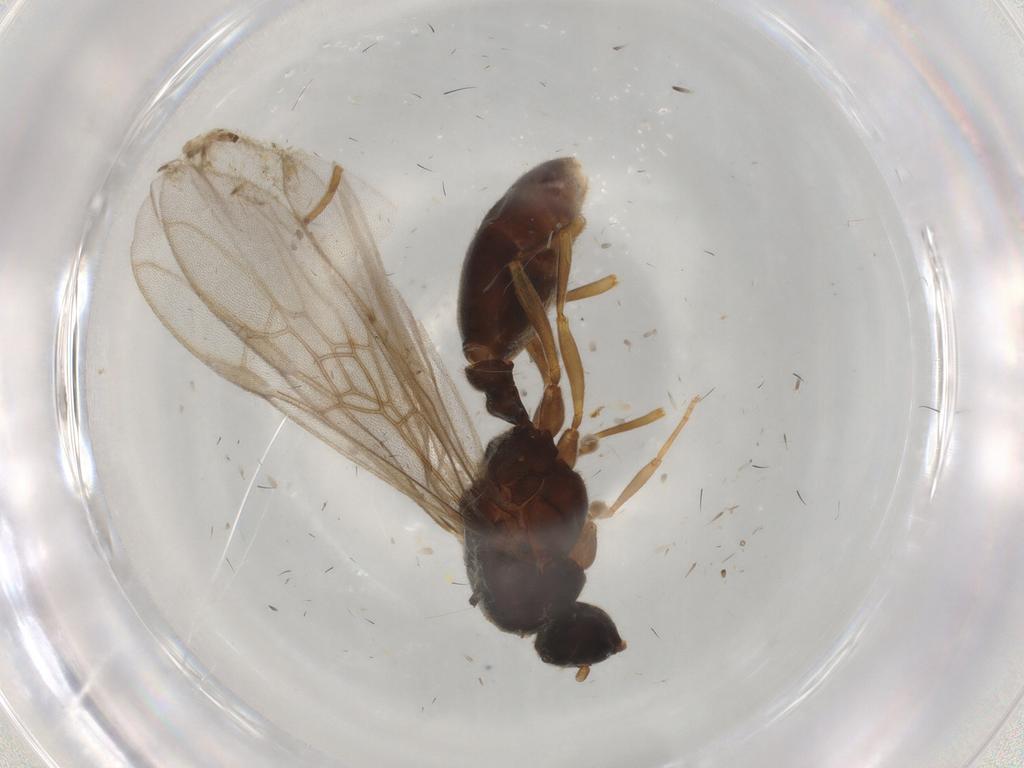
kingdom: Animalia
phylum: Arthropoda
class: Insecta
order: Hymenoptera
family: Formicidae
